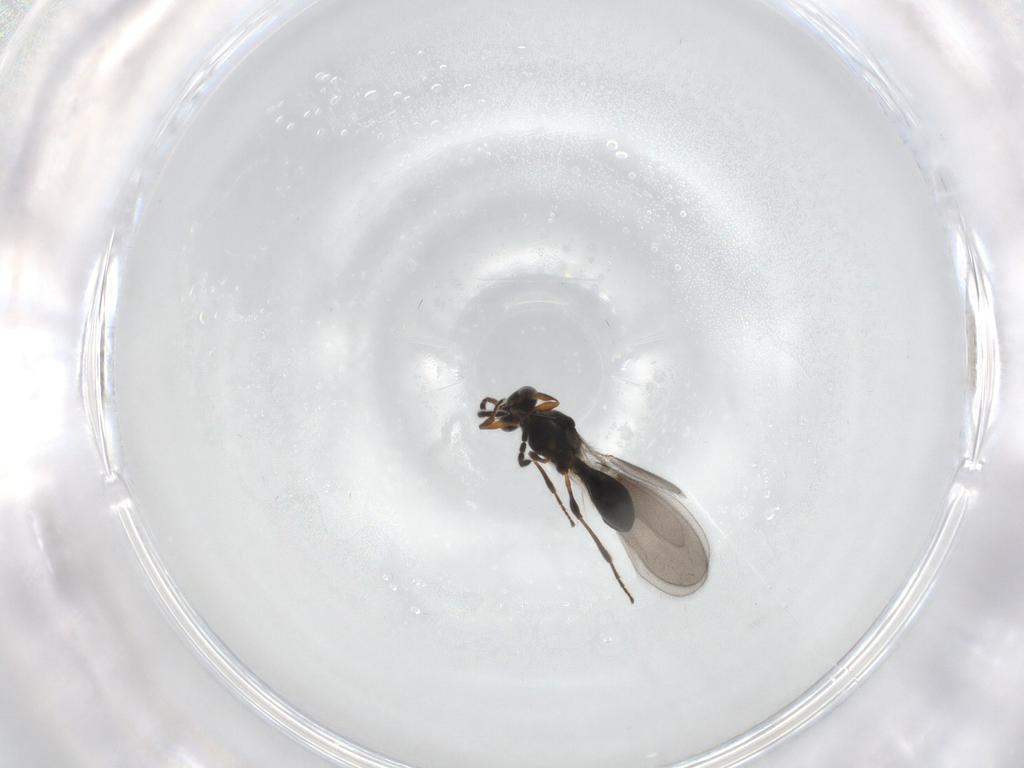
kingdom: Animalia
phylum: Arthropoda
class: Insecta
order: Hymenoptera
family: Platygastridae
